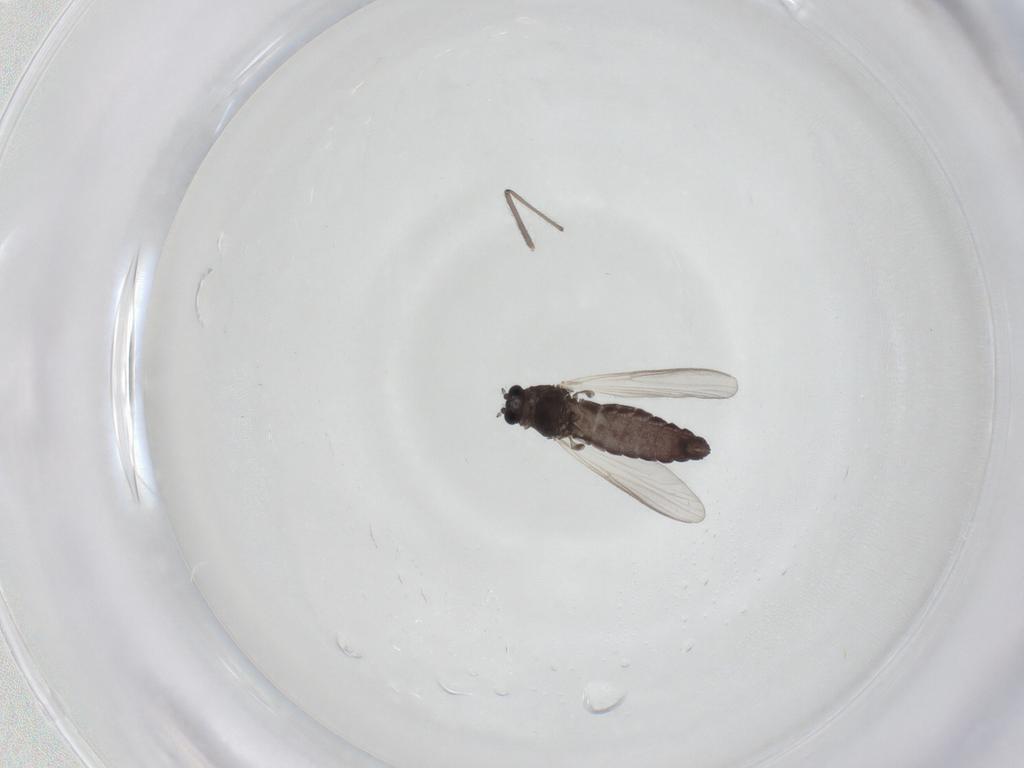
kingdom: Animalia
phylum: Arthropoda
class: Insecta
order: Diptera
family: Chironomidae
